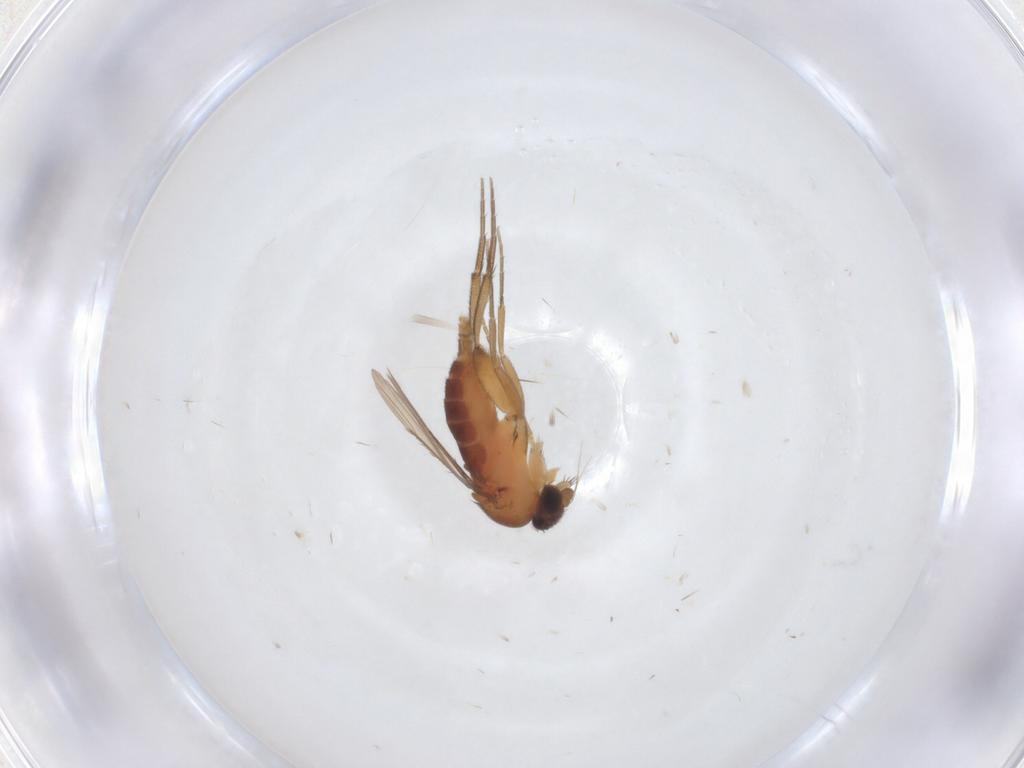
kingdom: Animalia
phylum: Arthropoda
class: Insecta
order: Diptera
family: Phoridae
